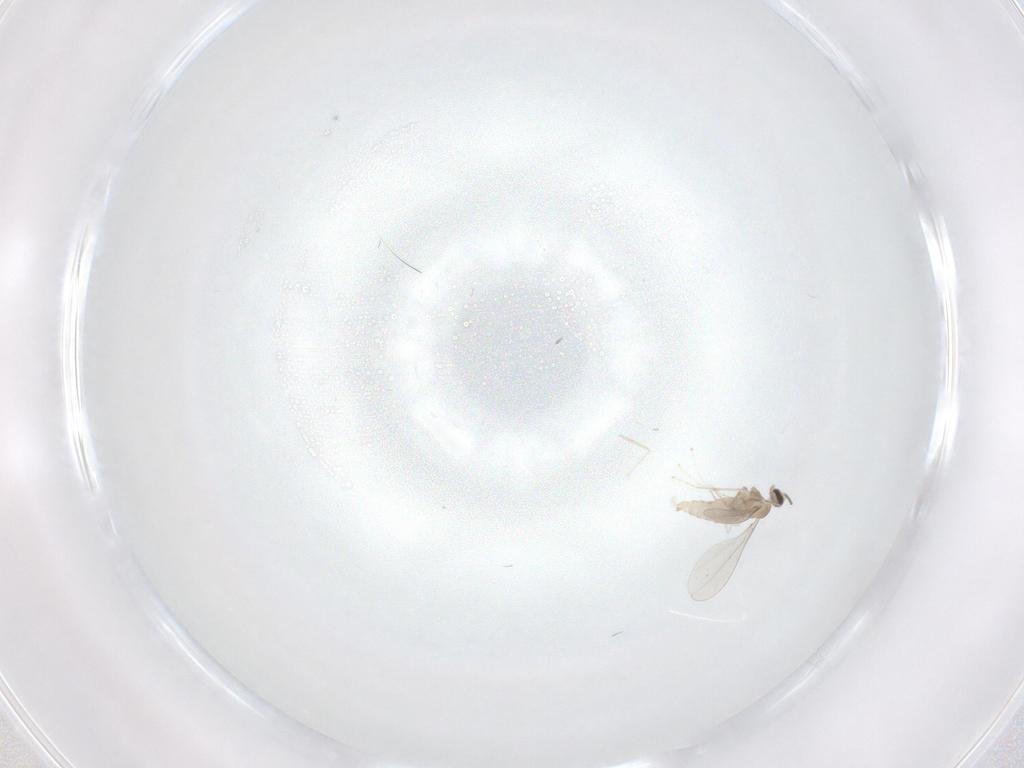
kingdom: Animalia
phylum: Arthropoda
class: Insecta
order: Diptera
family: Cecidomyiidae
